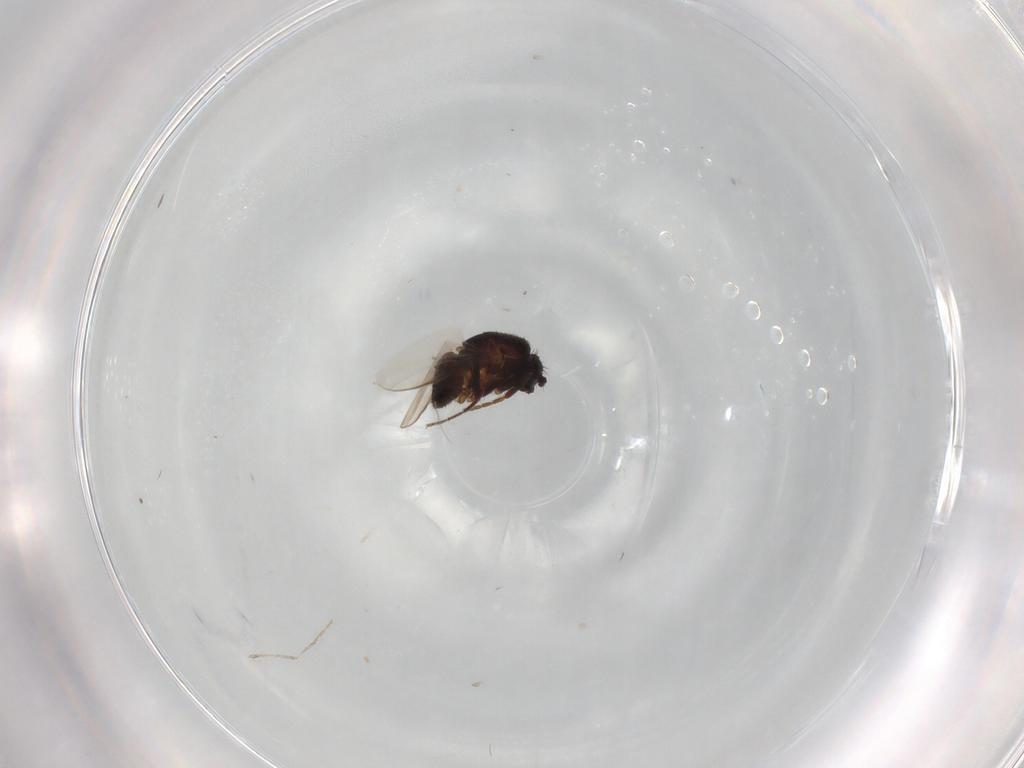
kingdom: Animalia
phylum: Arthropoda
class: Insecta
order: Diptera
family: Sphaeroceridae
